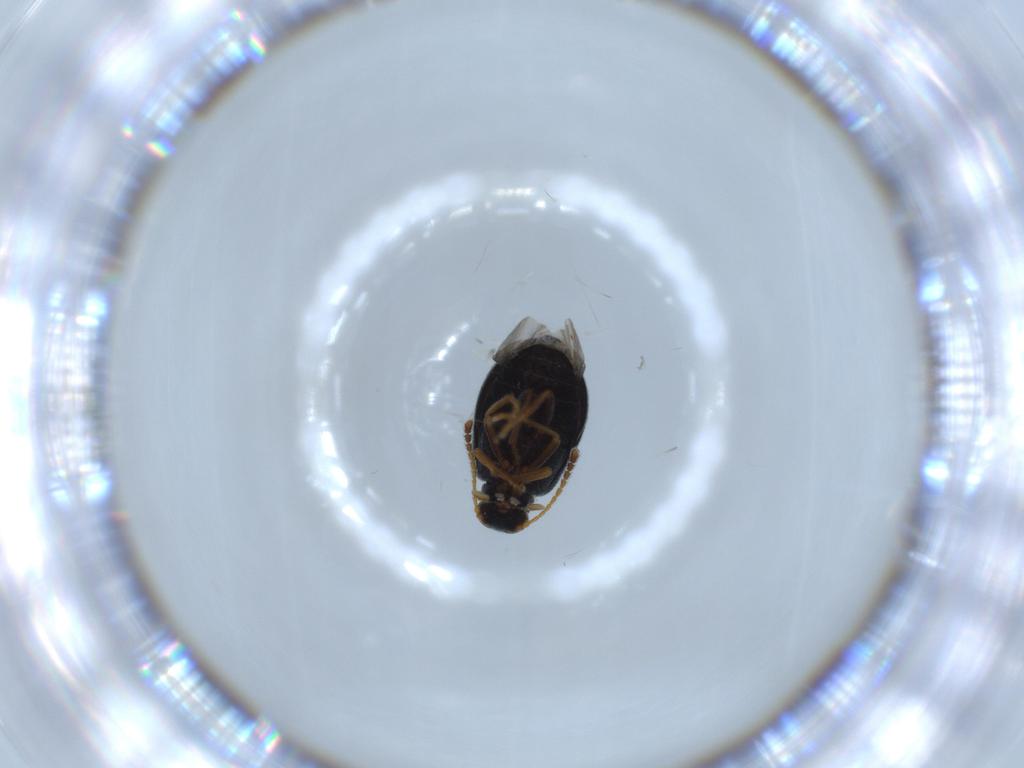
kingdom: Animalia
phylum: Arthropoda
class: Insecta
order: Coleoptera
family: Aderidae
